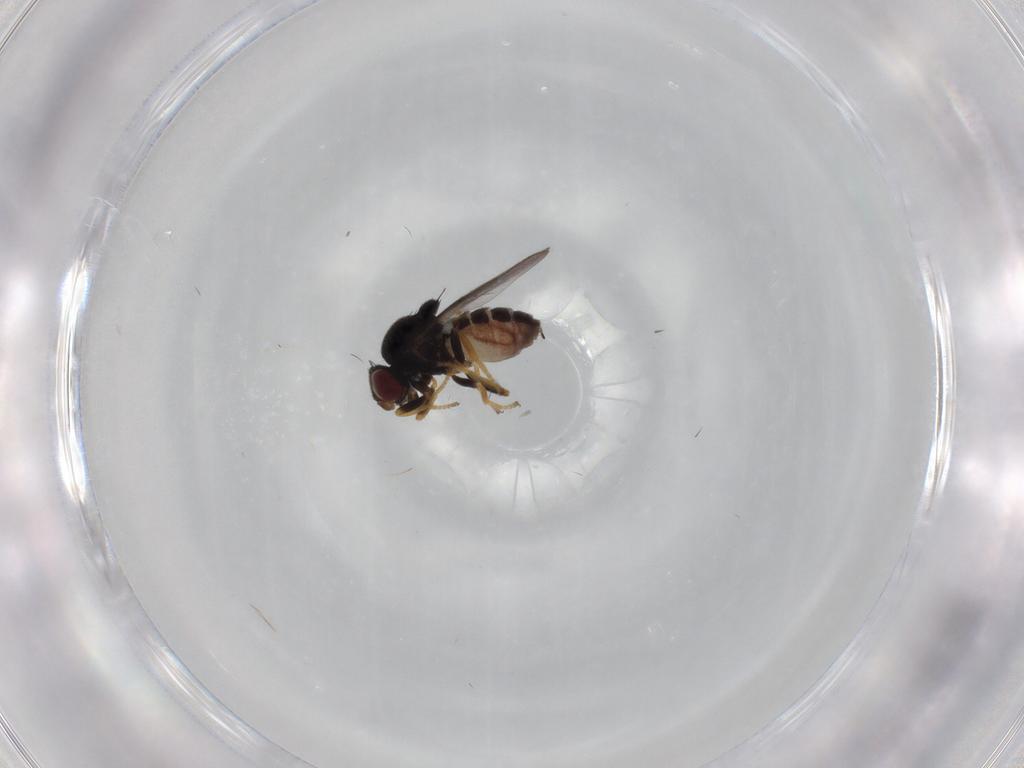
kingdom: Animalia
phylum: Arthropoda
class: Insecta
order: Diptera
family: Chloropidae
